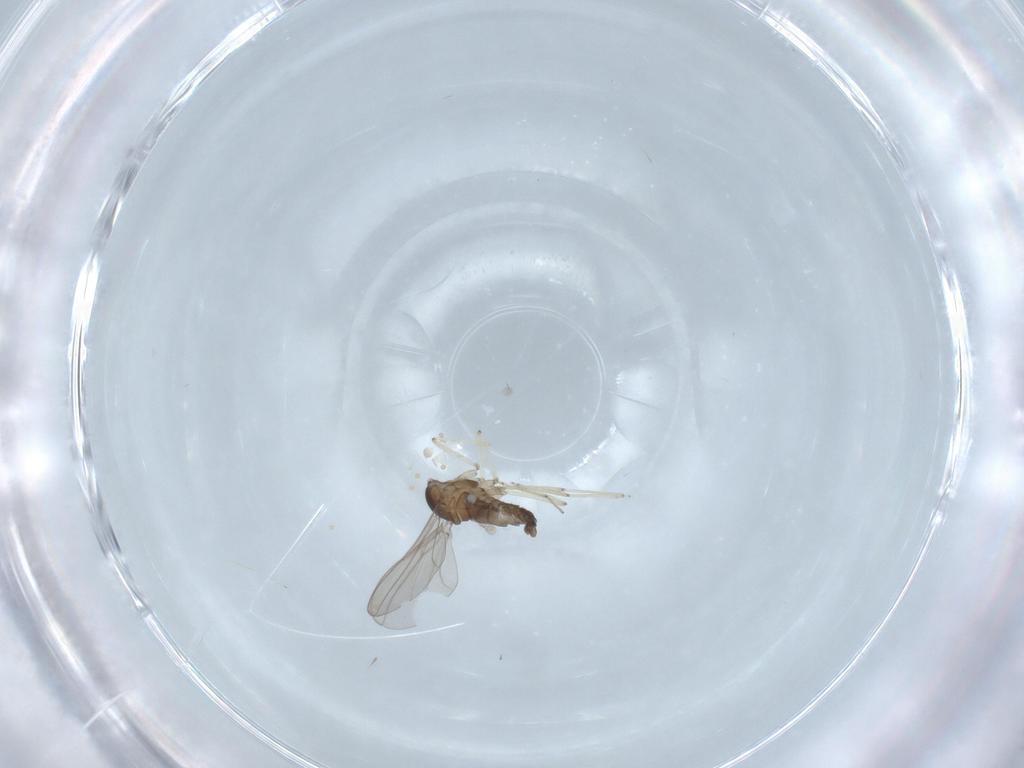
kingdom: Animalia
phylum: Arthropoda
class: Insecta
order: Diptera
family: Cecidomyiidae
